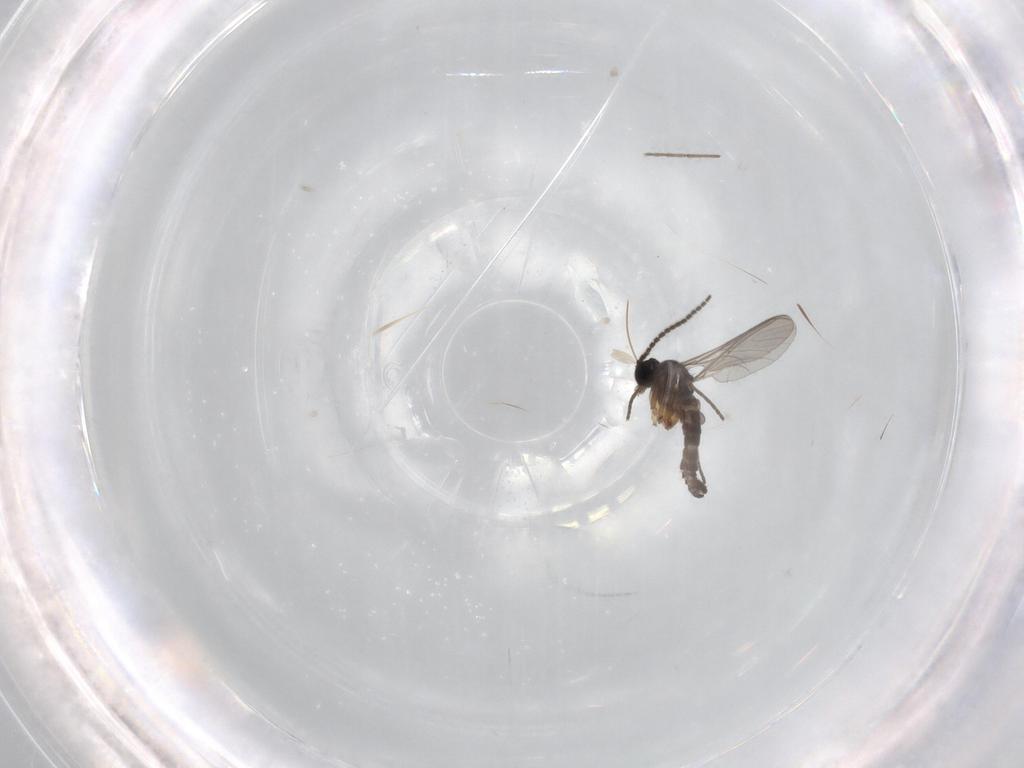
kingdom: Animalia
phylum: Arthropoda
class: Insecta
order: Diptera
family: Sciaridae
